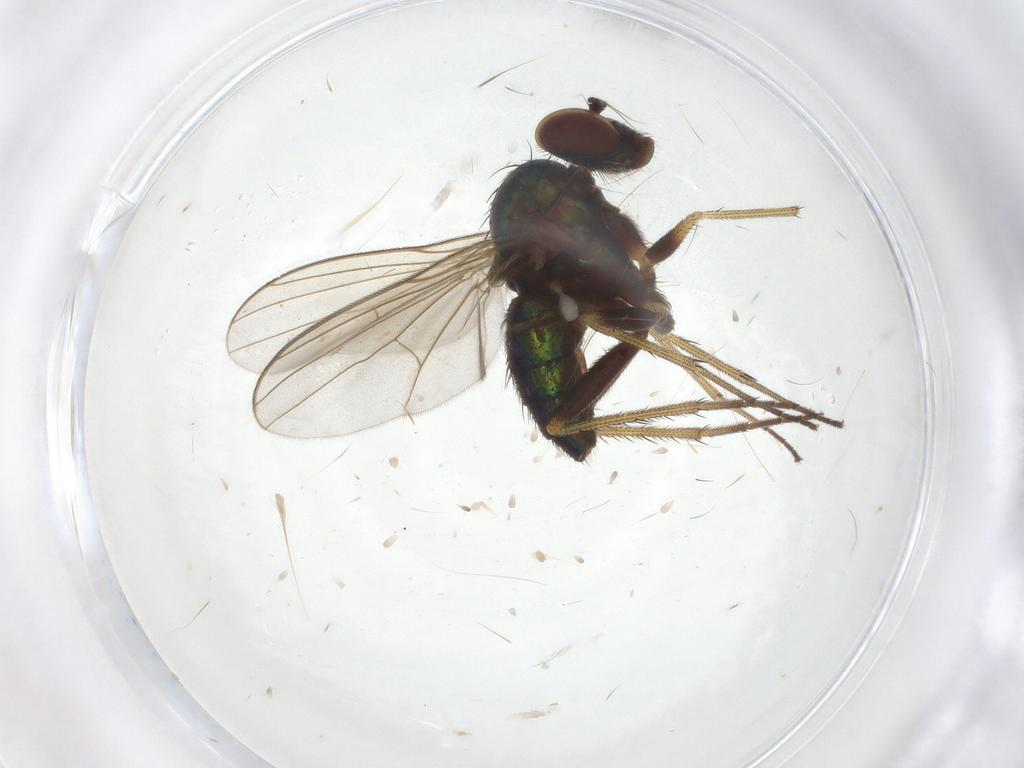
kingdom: Animalia
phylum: Arthropoda
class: Insecta
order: Diptera
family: Dolichopodidae
